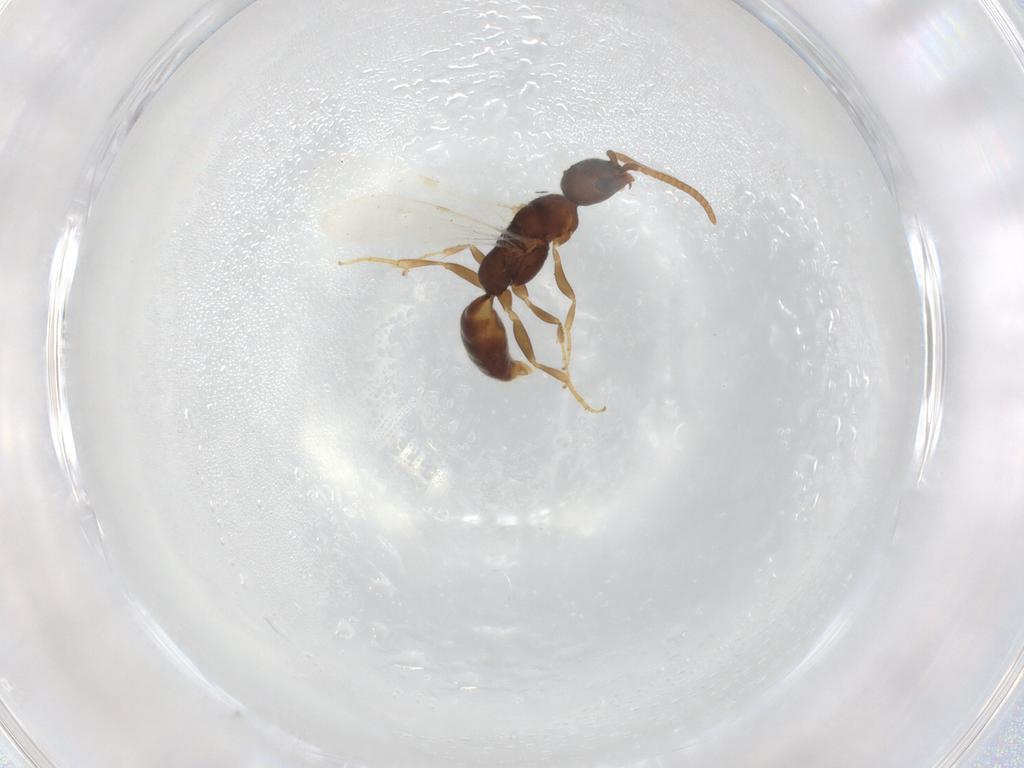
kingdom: Animalia
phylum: Arthropoda
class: Insecta
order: Hymenoptera
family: Bethylidae
